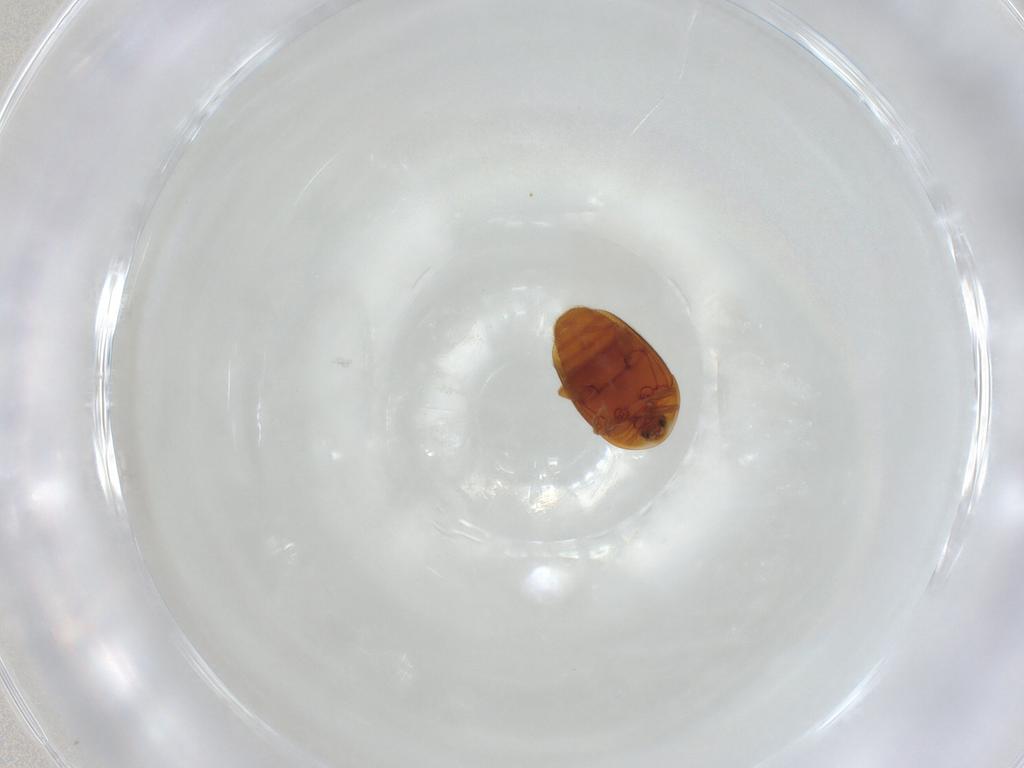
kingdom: Animalia
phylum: Arthropoda
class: Insecta
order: Coleoptera
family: Corylophidae
